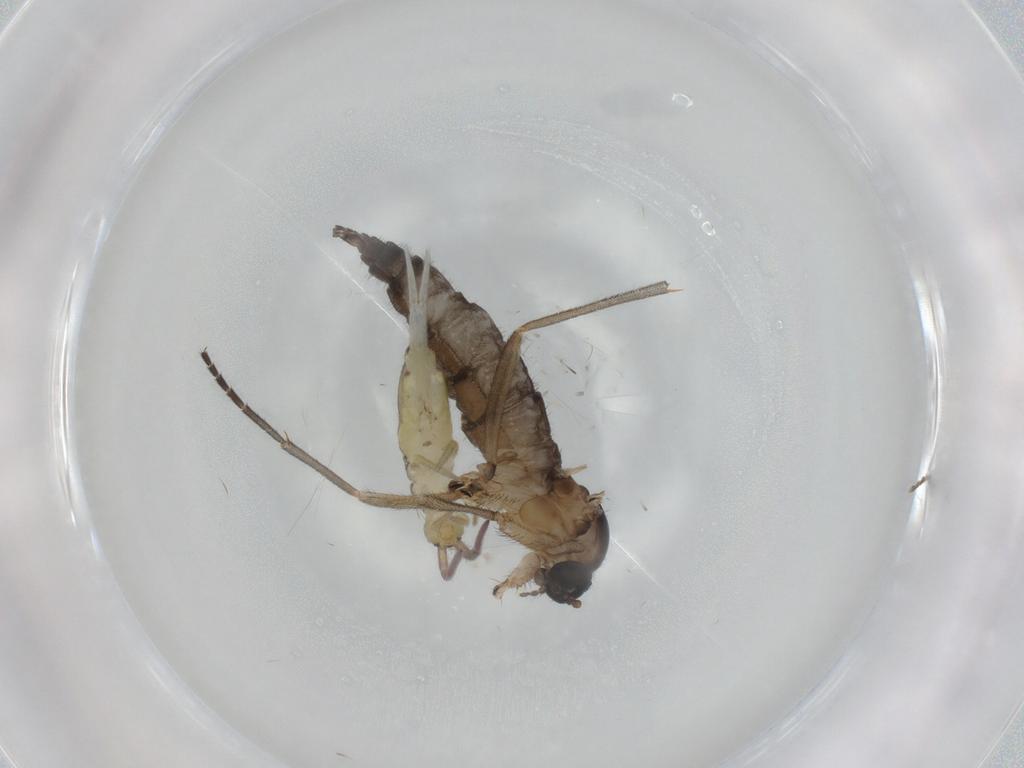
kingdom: Animalia
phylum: Arthropoda
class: Insecta
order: Diptera
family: Sciaridae
